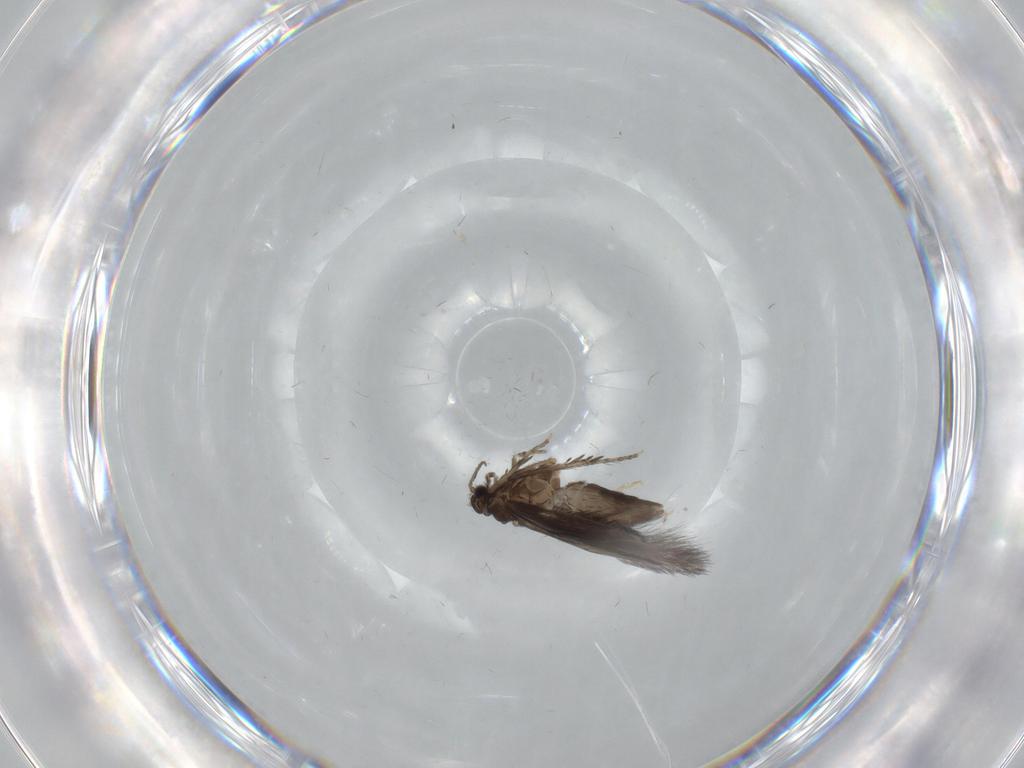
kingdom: Animalia
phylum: Arthropoda
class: Insecta
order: Trichoptera
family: Hydroptilidae
